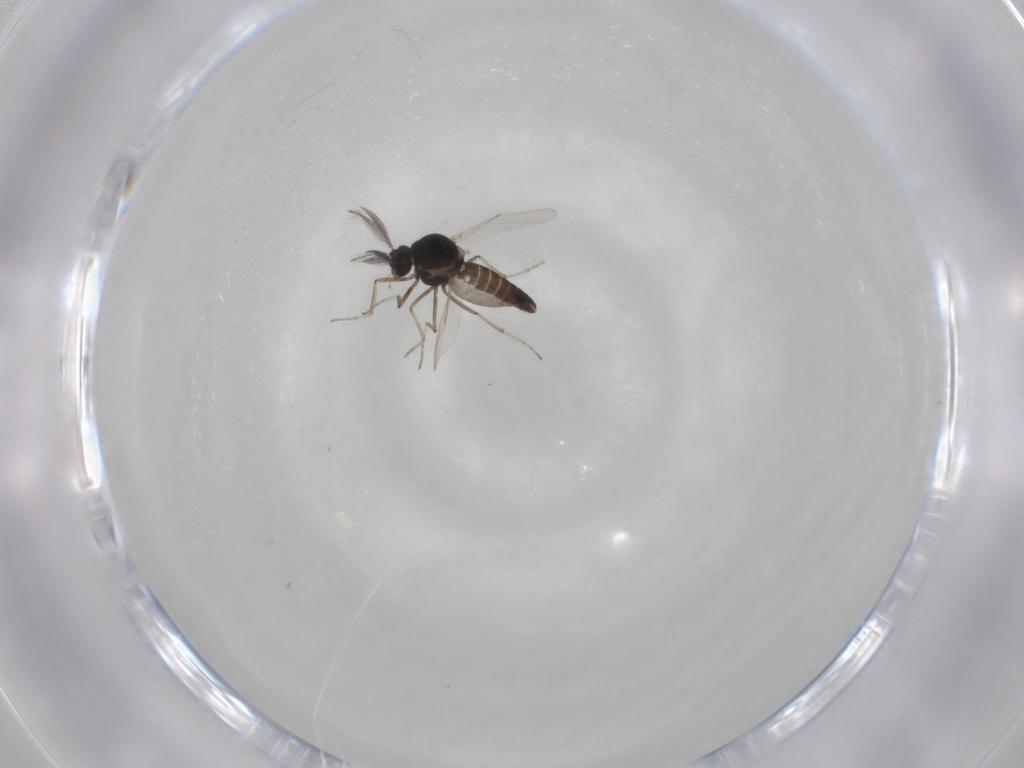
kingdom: Animalia
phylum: Arthropoda
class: Insecta
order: Diptera
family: Ceratopogonidae
